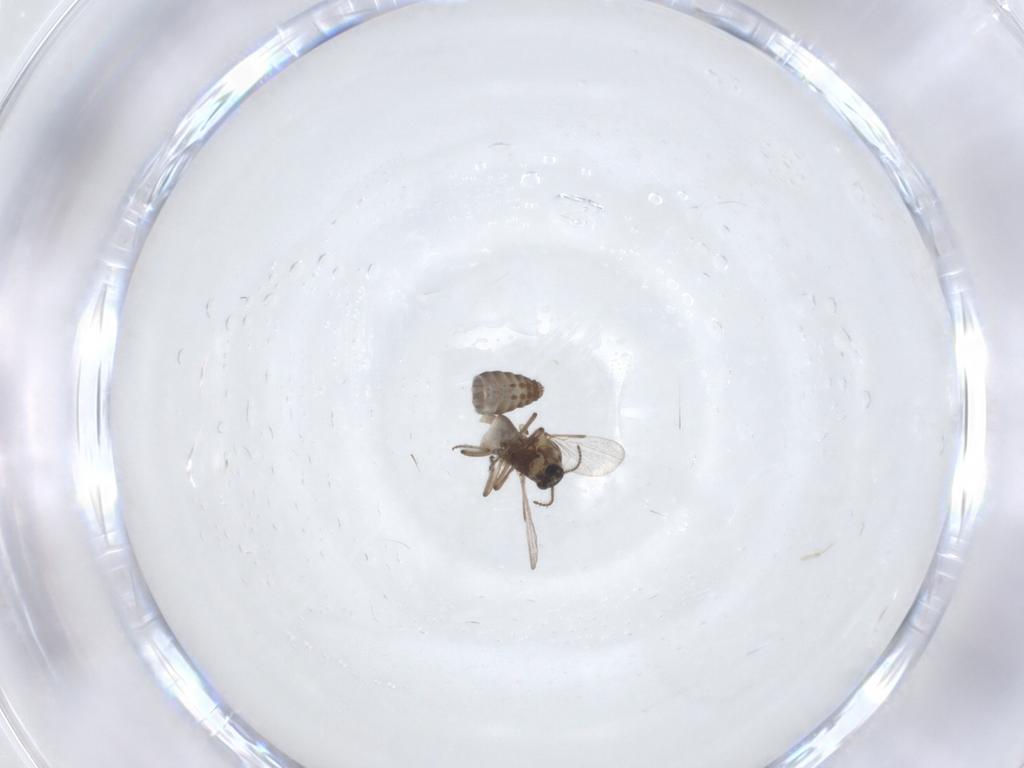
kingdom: Animalia
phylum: Arthropoda
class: Insecta
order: Diptera
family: Ceratopogonidae
